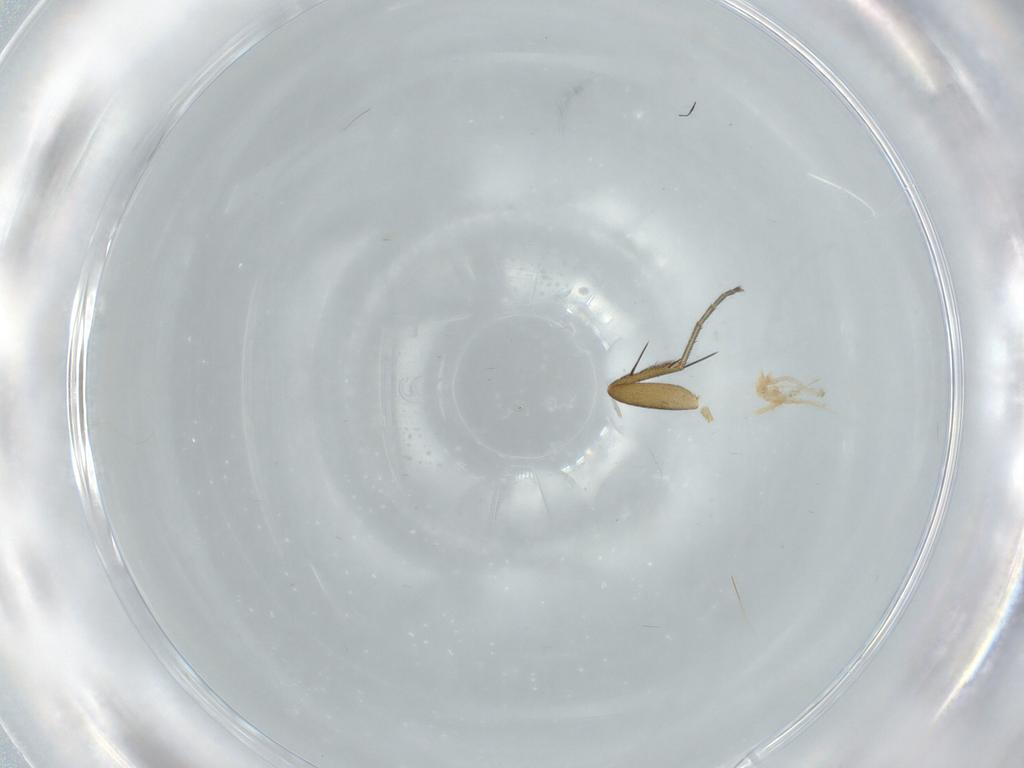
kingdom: Animalia
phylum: Arthropoda
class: Insecta
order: Diptera
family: Phoridae
